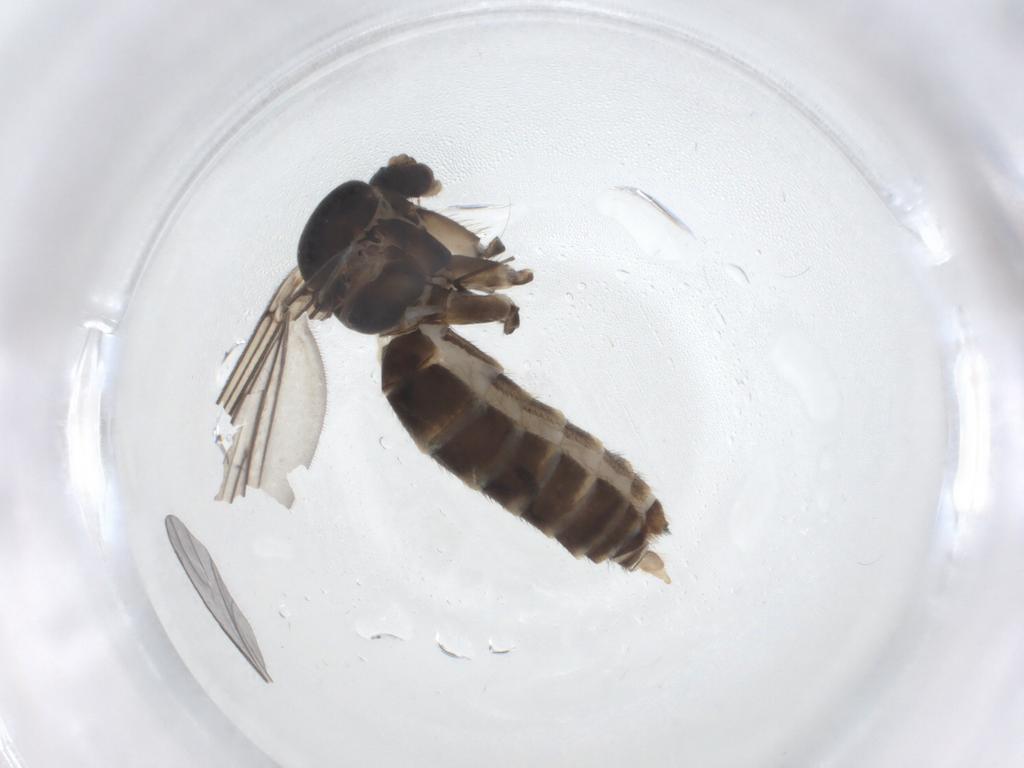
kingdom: Animalia
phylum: Arthropoda
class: Insecta
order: Diptera
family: Mycetophilidae
